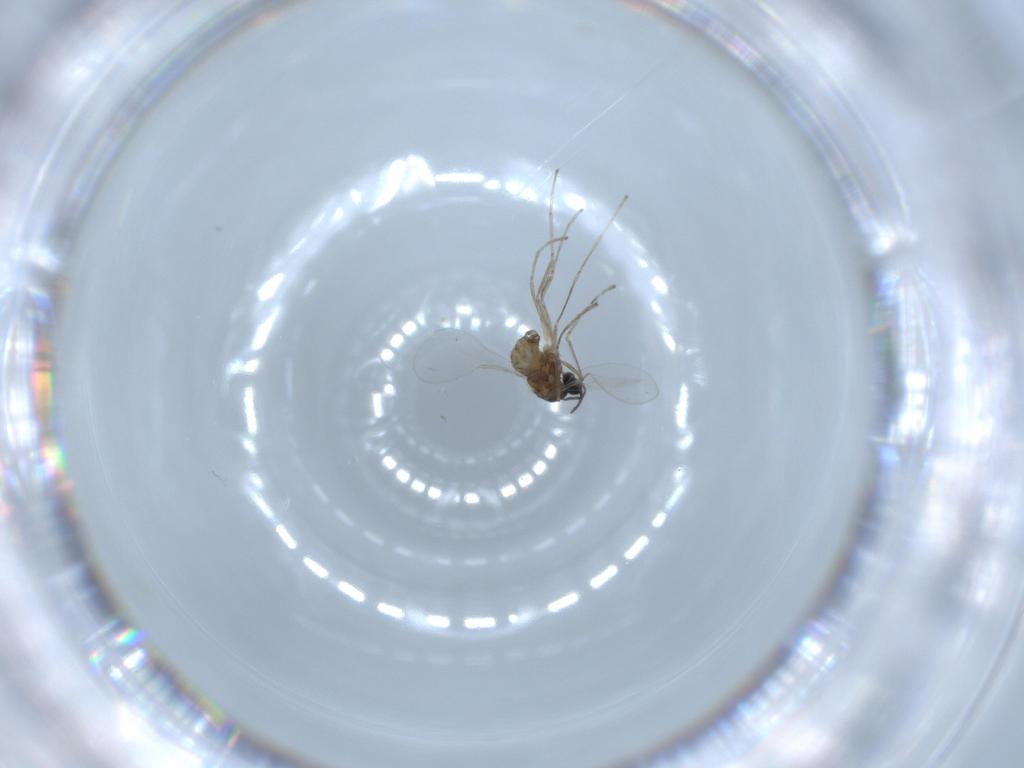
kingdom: Animalia
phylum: Arthropoda
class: Insecta
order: Diptera
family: Cecidomyiidae
